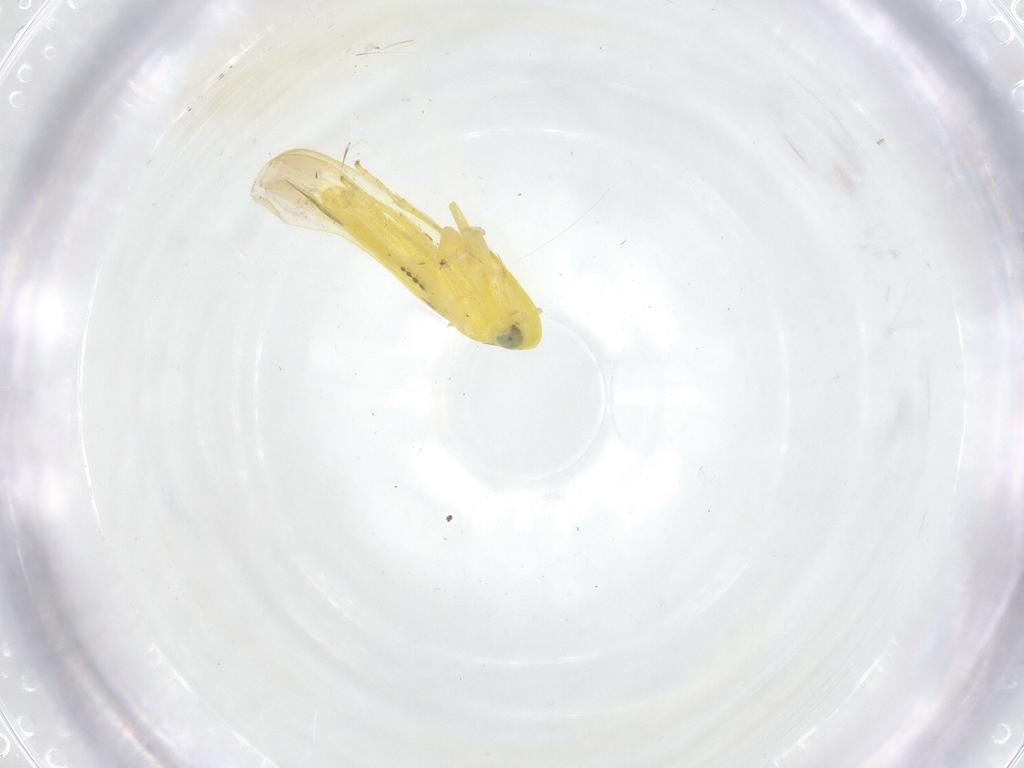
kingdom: Animalia
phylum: Arthropoda
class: Insecta
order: Hemiptera
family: Cicadellidae
